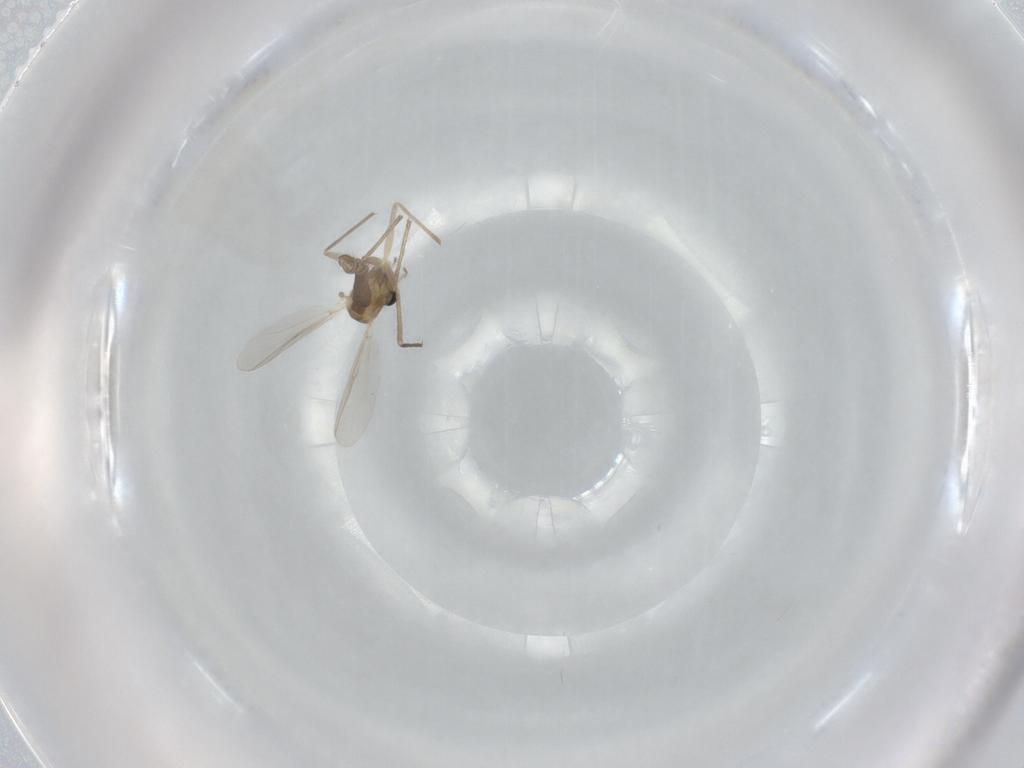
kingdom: Animalia
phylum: Arthropoda
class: Insecta
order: Diptera
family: Chironomidae
